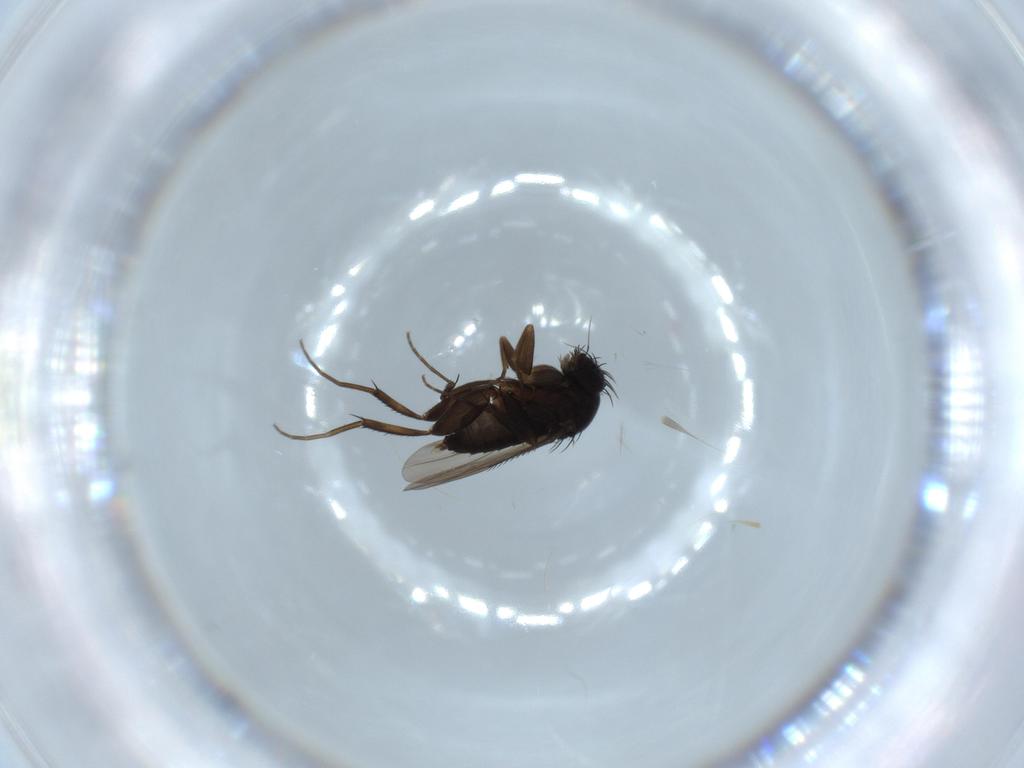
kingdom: Animalia
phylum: Arthropoda
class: Insecta
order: Diptera
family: Phoridae
